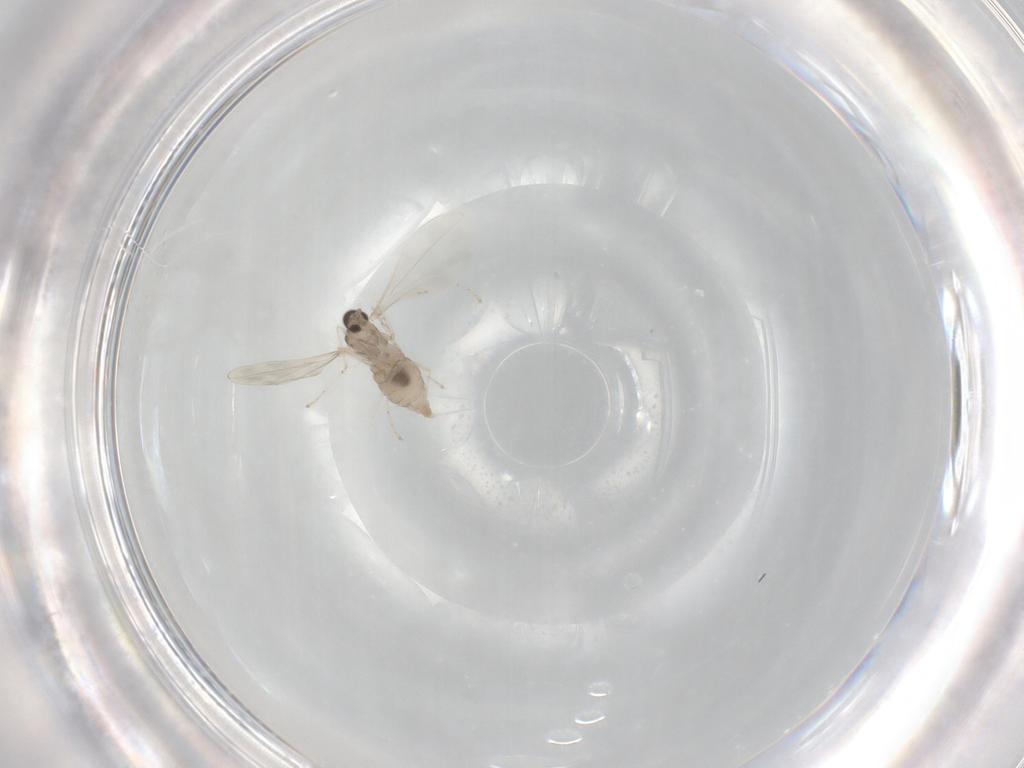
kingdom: Animalia
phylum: Arthropoda
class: Insecta
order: Diptera
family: Cecidomyiidae
